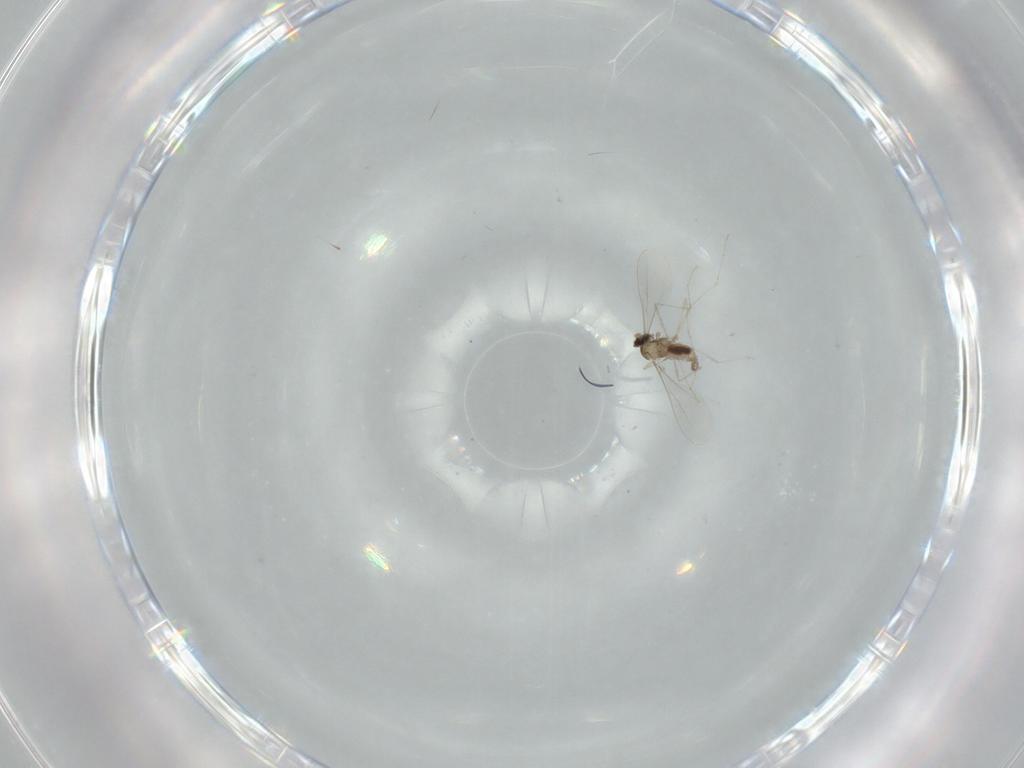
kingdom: Animalia
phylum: Arthropoda
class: Insecta
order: Diptera
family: Cecidomyiidae
